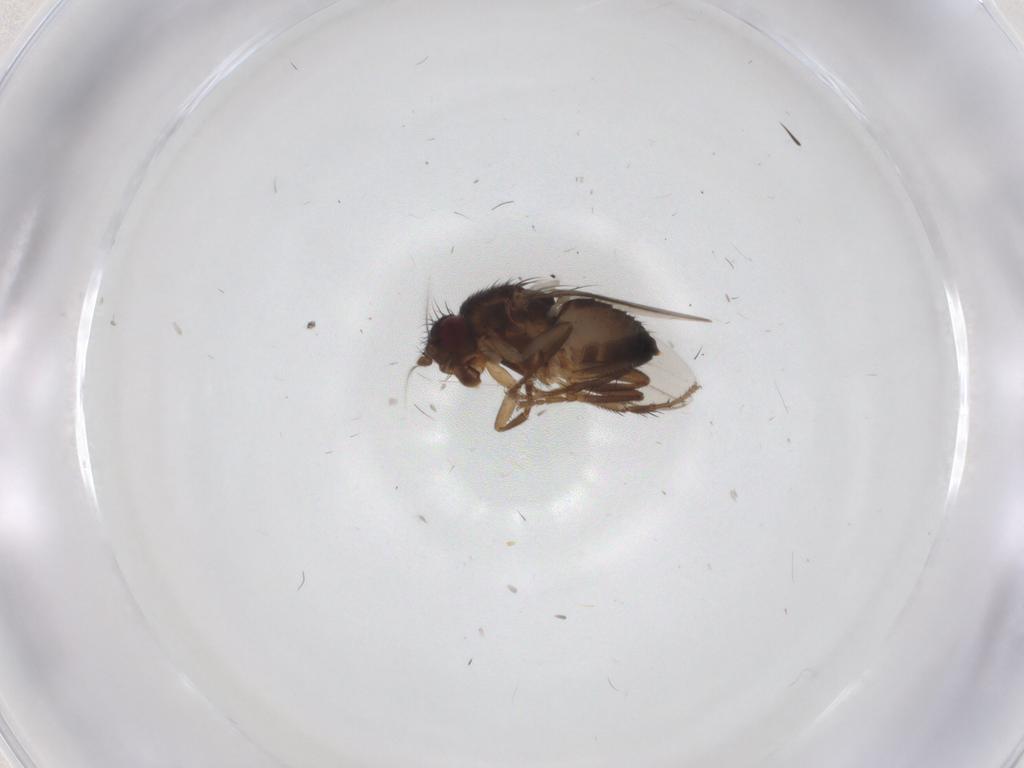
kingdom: Animalia
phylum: Arthropoda
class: Insecta
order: Diptera
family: Sphaeroceridae
